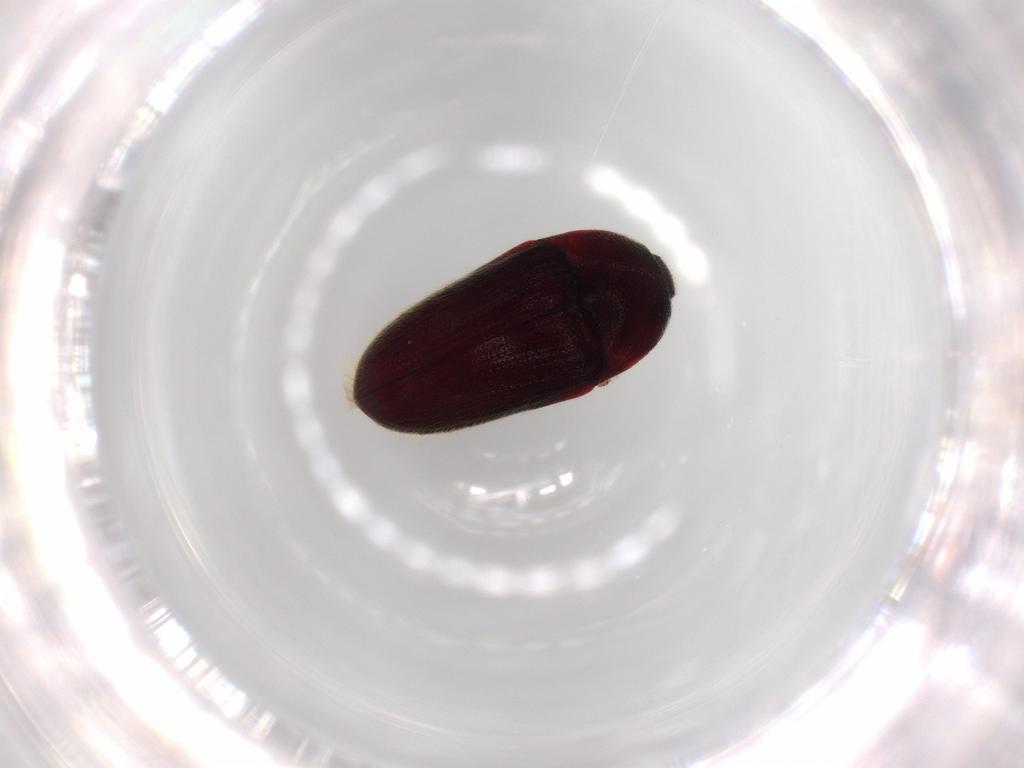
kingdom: Animalia
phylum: Arthropoda
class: Insecta
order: Coleoptera
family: Throscidae
